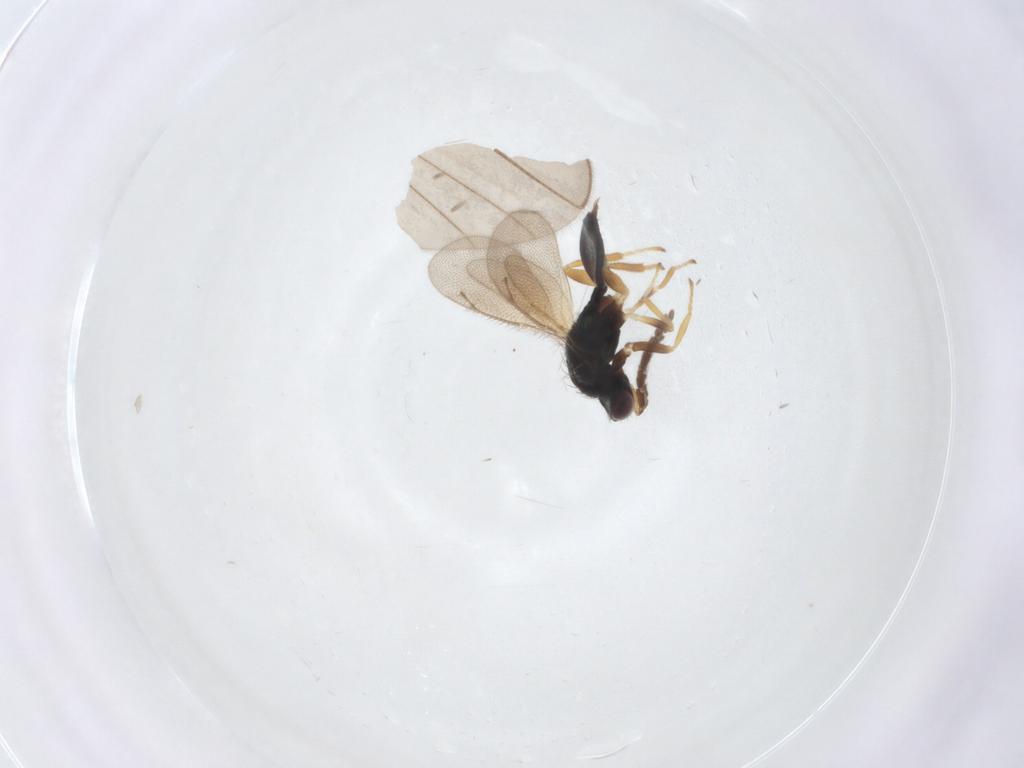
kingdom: Animalia
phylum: Arthropoda
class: Insecta
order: Hymenoptera
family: Eulophidae
